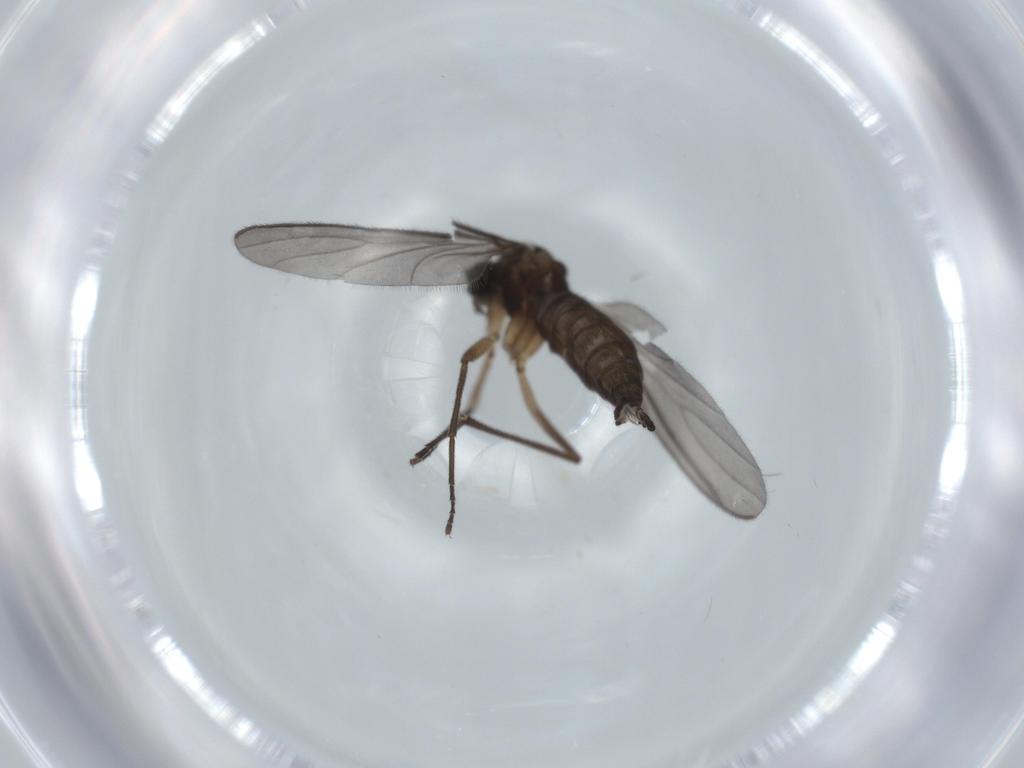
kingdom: Animalia
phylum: Arthropoda
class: Insecta
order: Diptera
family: Sciaridae
